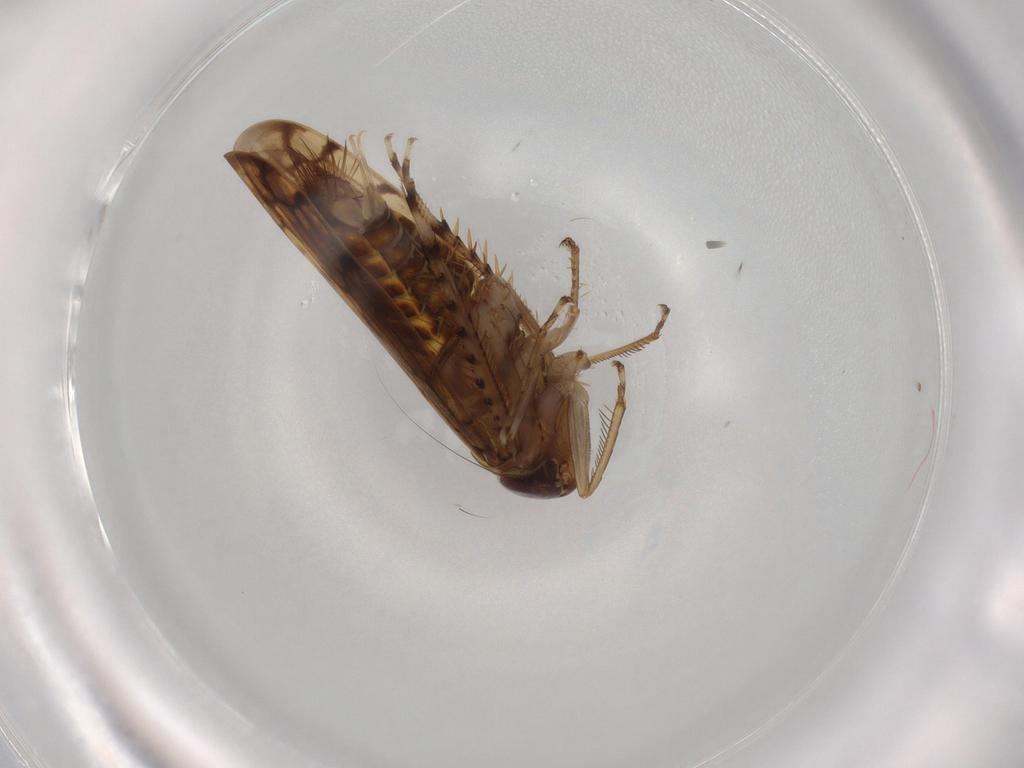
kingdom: Animalia
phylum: Arthropoda
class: Insecta
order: Hemiptera
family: Cicadellidae
